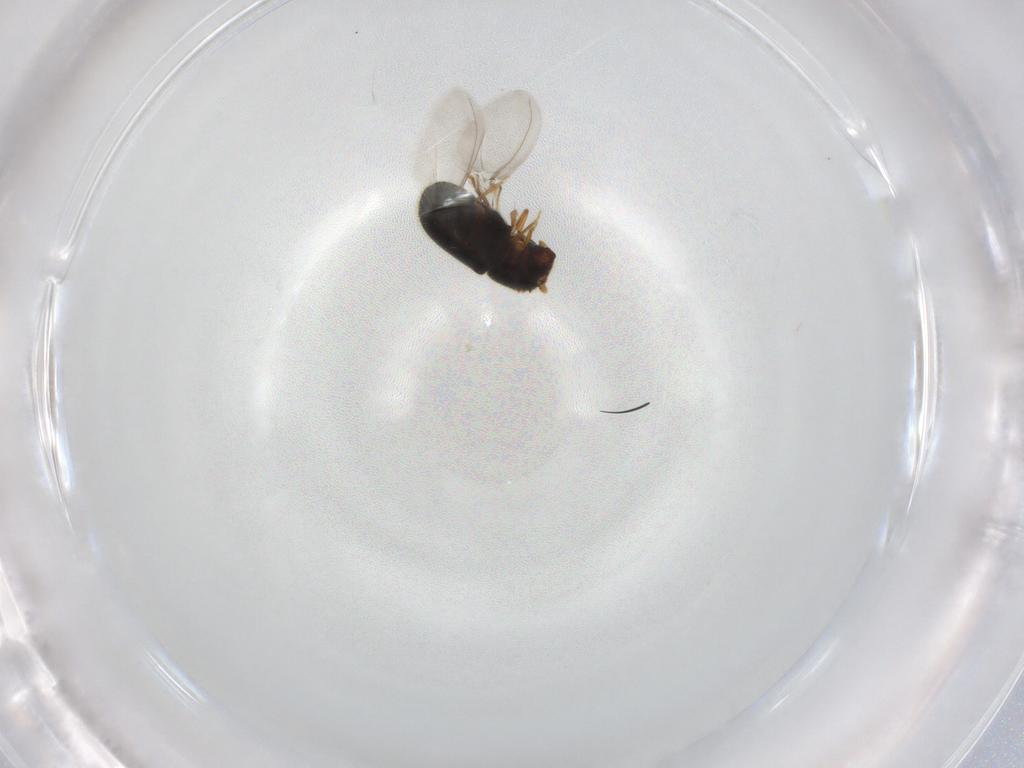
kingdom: Animalia
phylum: Arthropoda
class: Insecta
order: Coleoptera
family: Curculionidae
